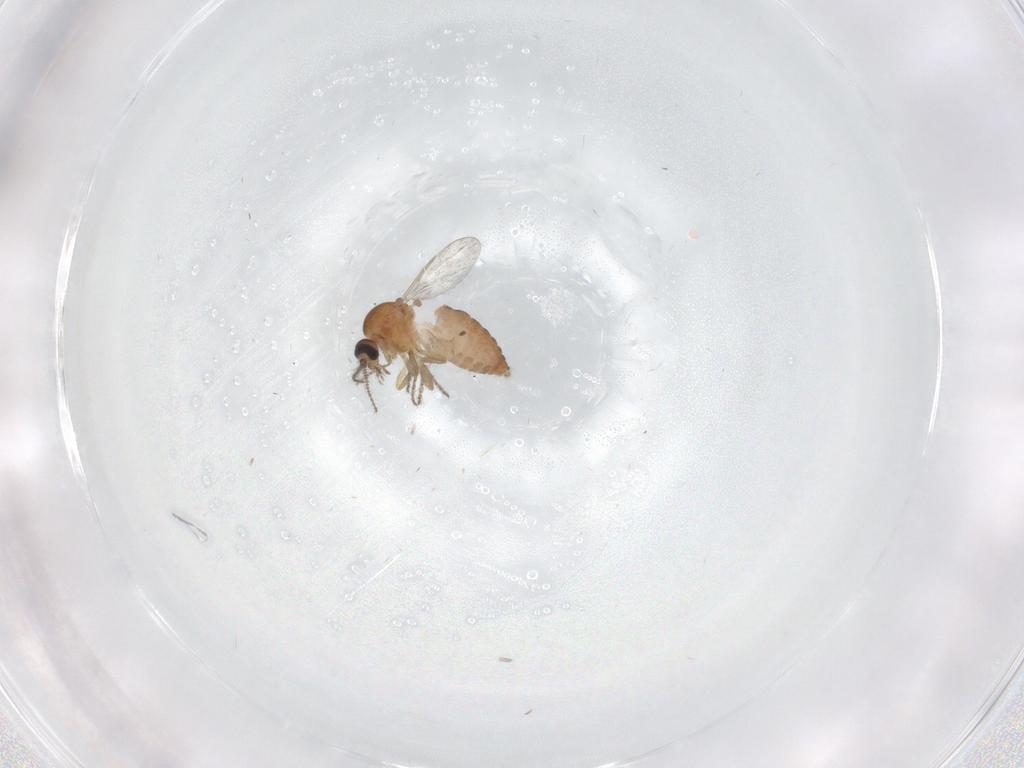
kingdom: Animalia
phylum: Arthropoda
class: Insecta
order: Diptera
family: Ceratopogonidae
